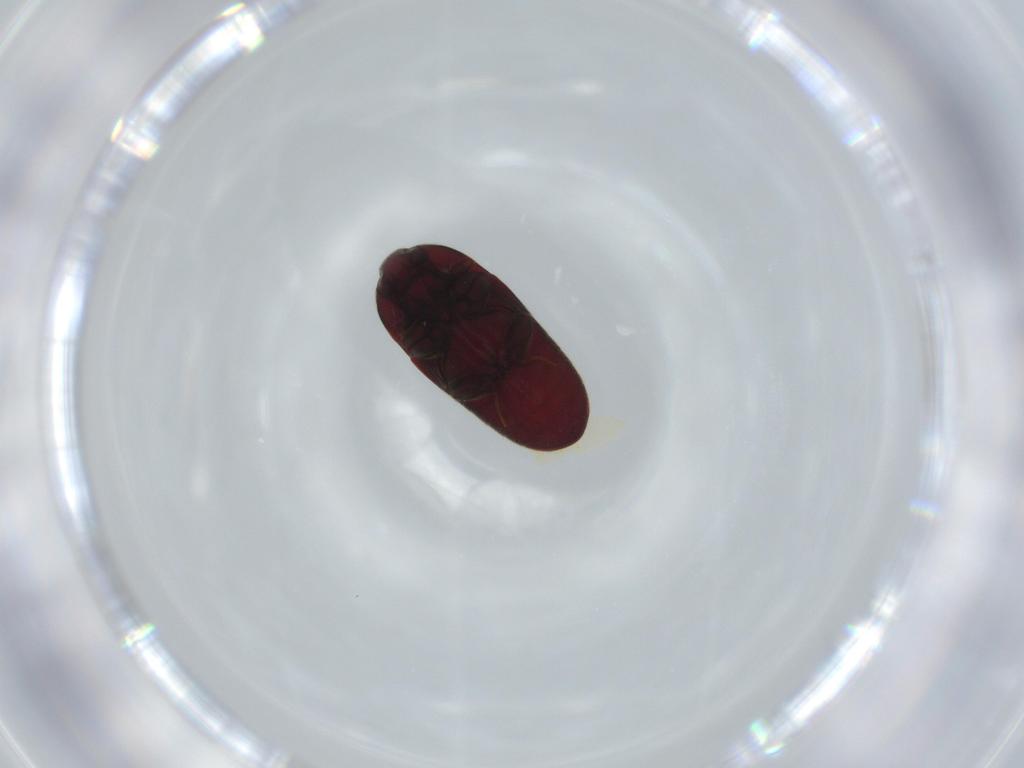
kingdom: Animalia
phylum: Arthropoda
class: Insecta
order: Coleoptera
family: Throscidae
